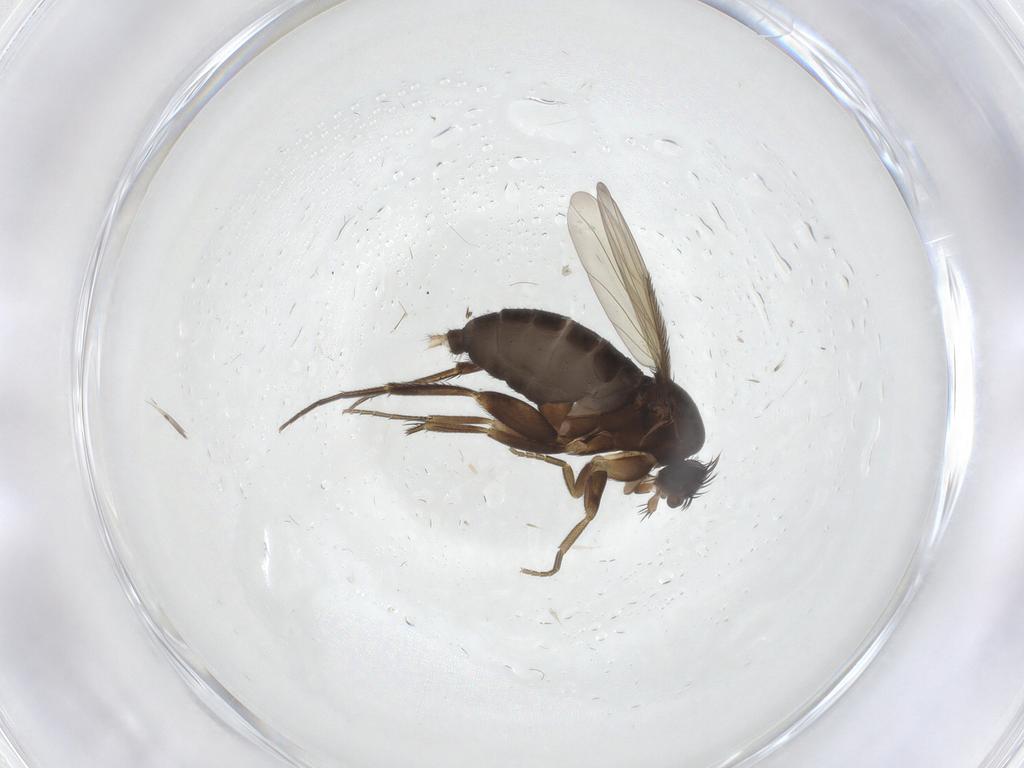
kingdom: Animalia
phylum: Arthropoda
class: Insecta
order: Diptera
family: Phoridae
